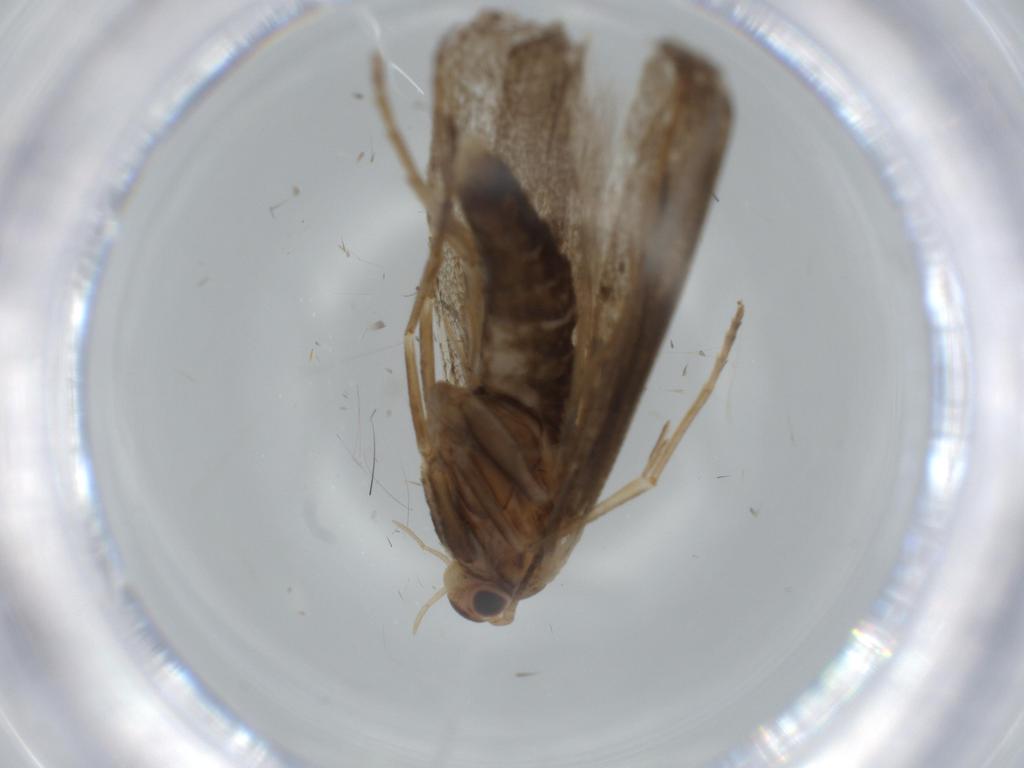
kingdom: Animalia
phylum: Arthropoda
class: Insecta
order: Lepidoptera
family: Argyresthiidae
